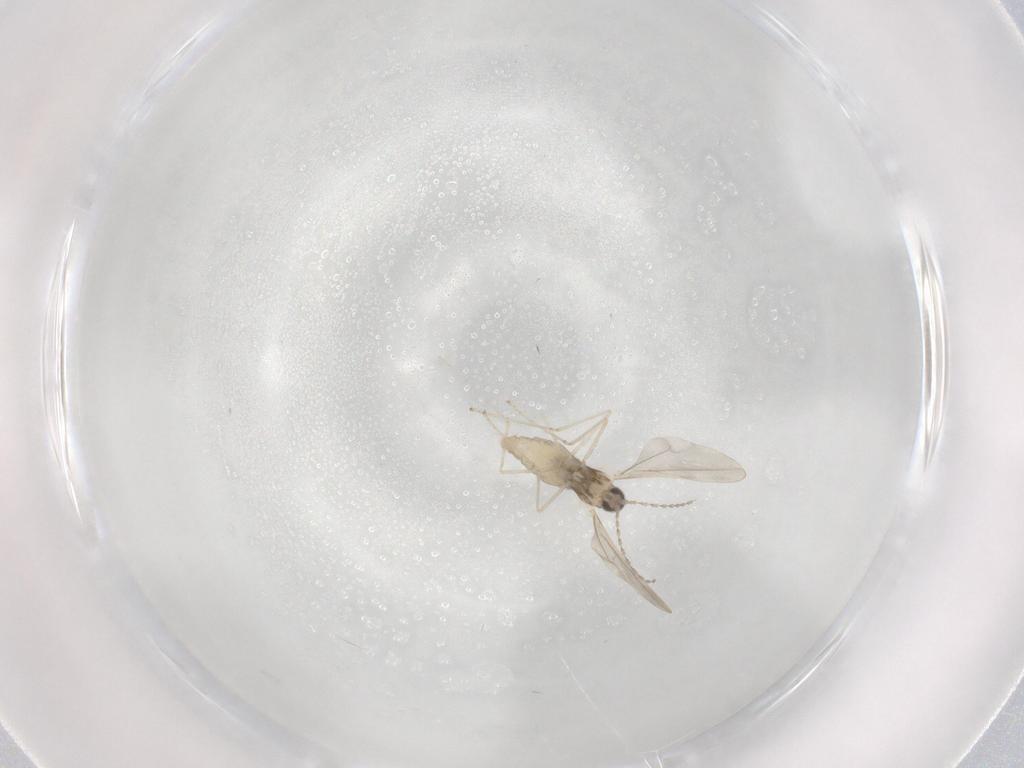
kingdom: Animalia
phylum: Arthropoda
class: Insecta
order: Diptera
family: Cecidomyiidae
